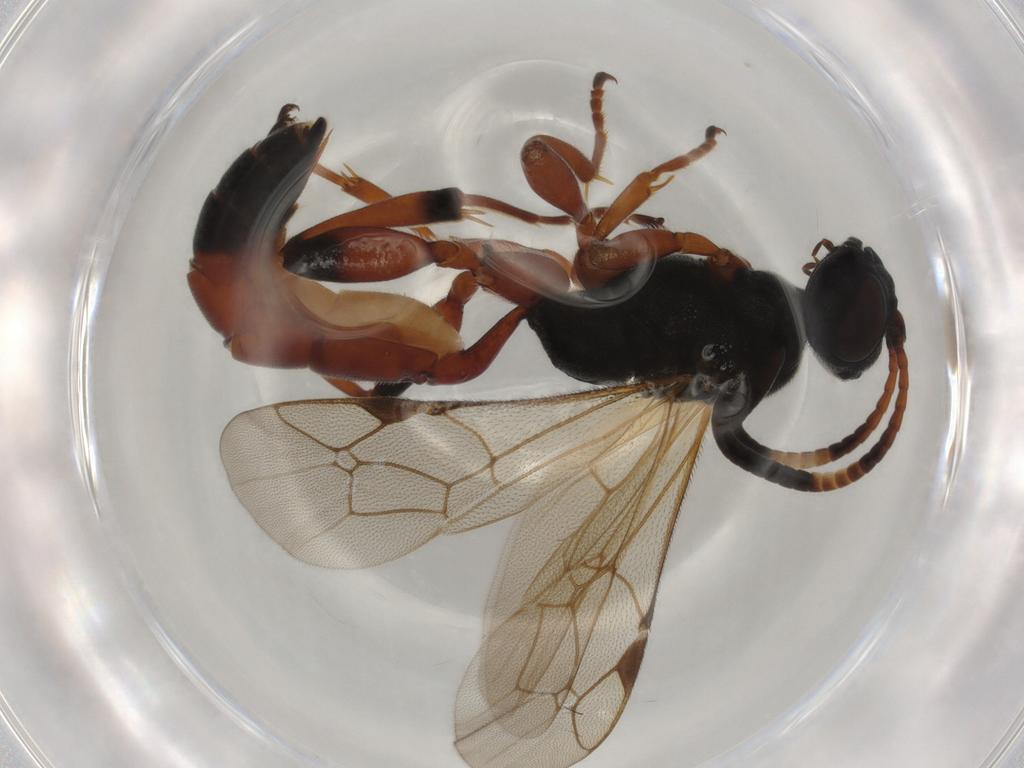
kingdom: Animalia
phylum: Arthropoda
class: Insecta
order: Hymenoptera
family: Ichneumonidae
